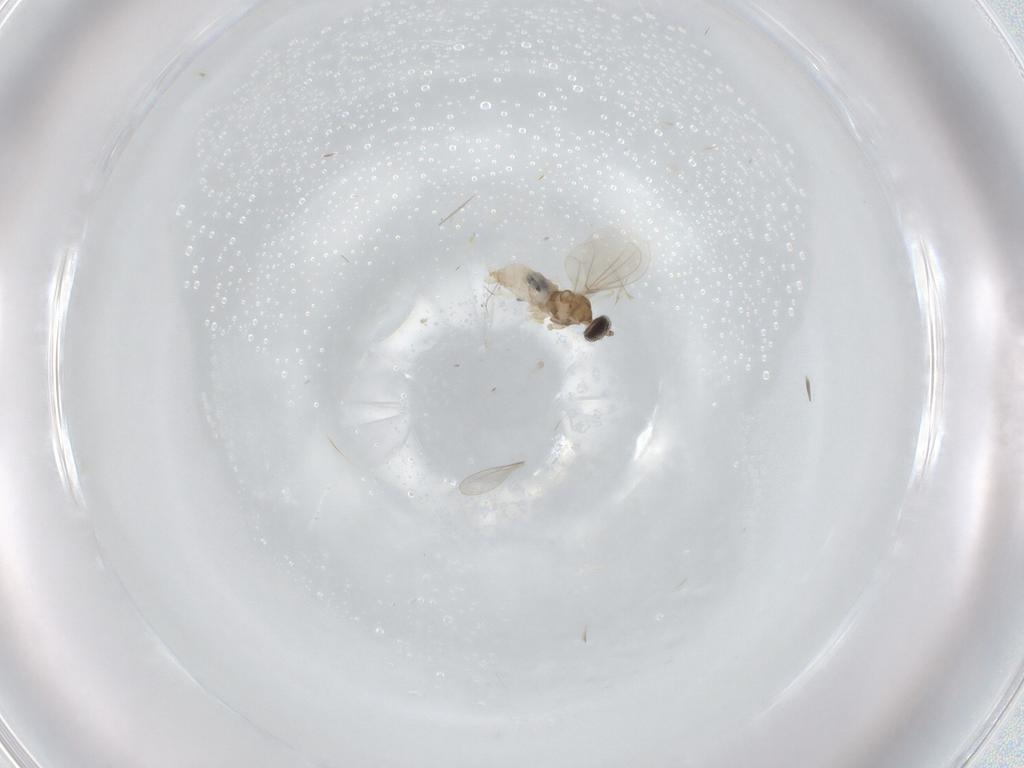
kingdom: Animalia
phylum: Arthropoda
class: Insecta
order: Diptera
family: Cecidomyiidae
